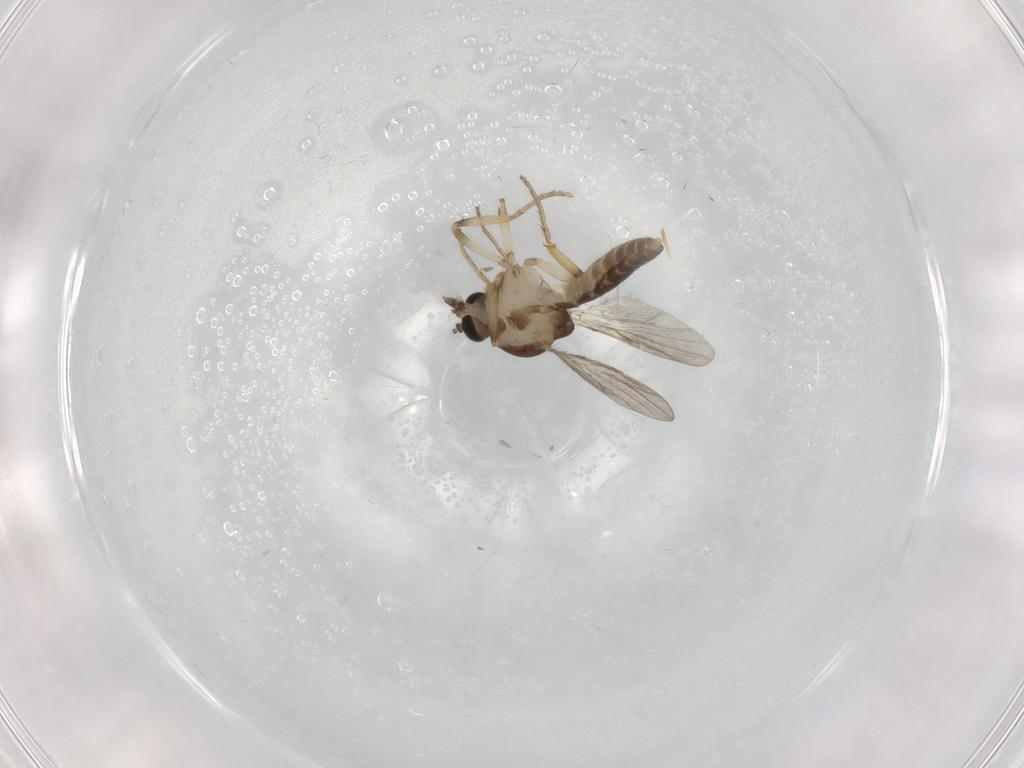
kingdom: Animalia
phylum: Arthropoda
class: Insecta
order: Diptera
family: Ceratopogonidae
